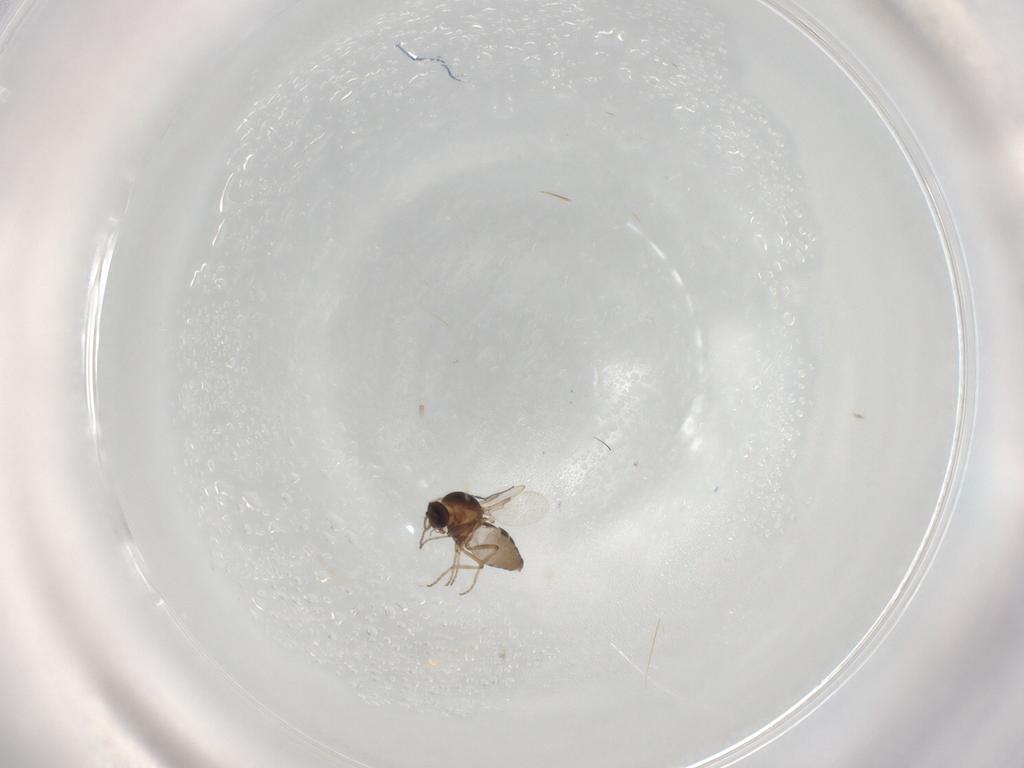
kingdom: Animalia
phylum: Arthropoda
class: Insecta
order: Diptera
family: Ceratopogonidae
